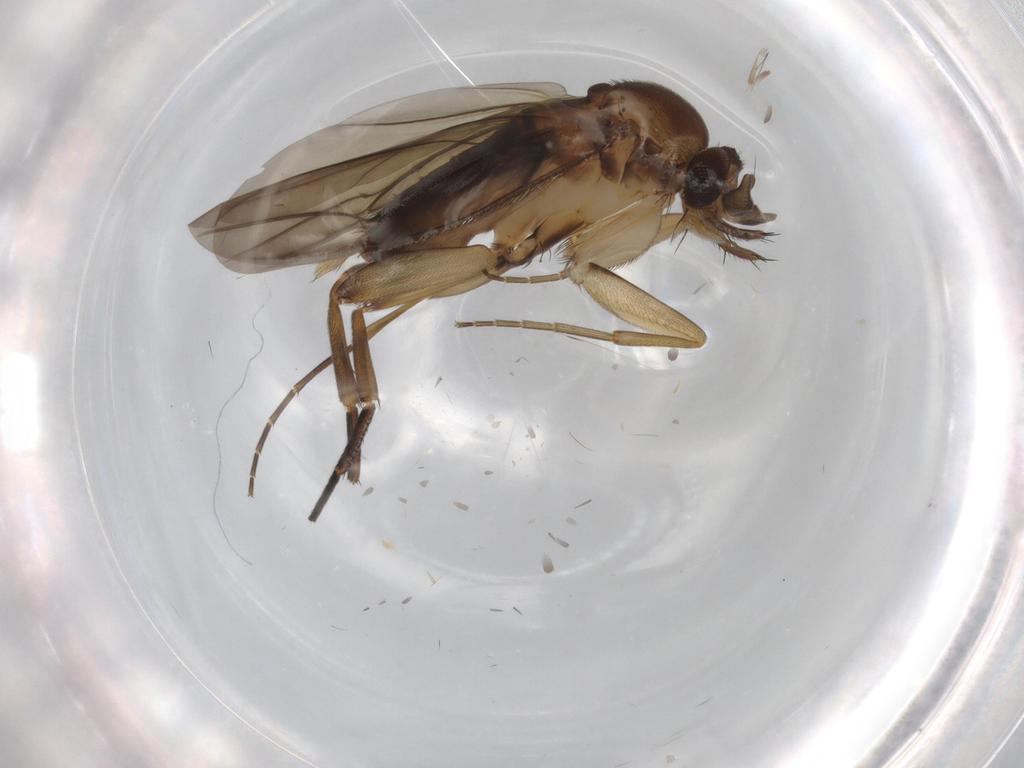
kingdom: Animalia
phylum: Arthropoda
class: Insecta
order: Diptera
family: Phoridae
